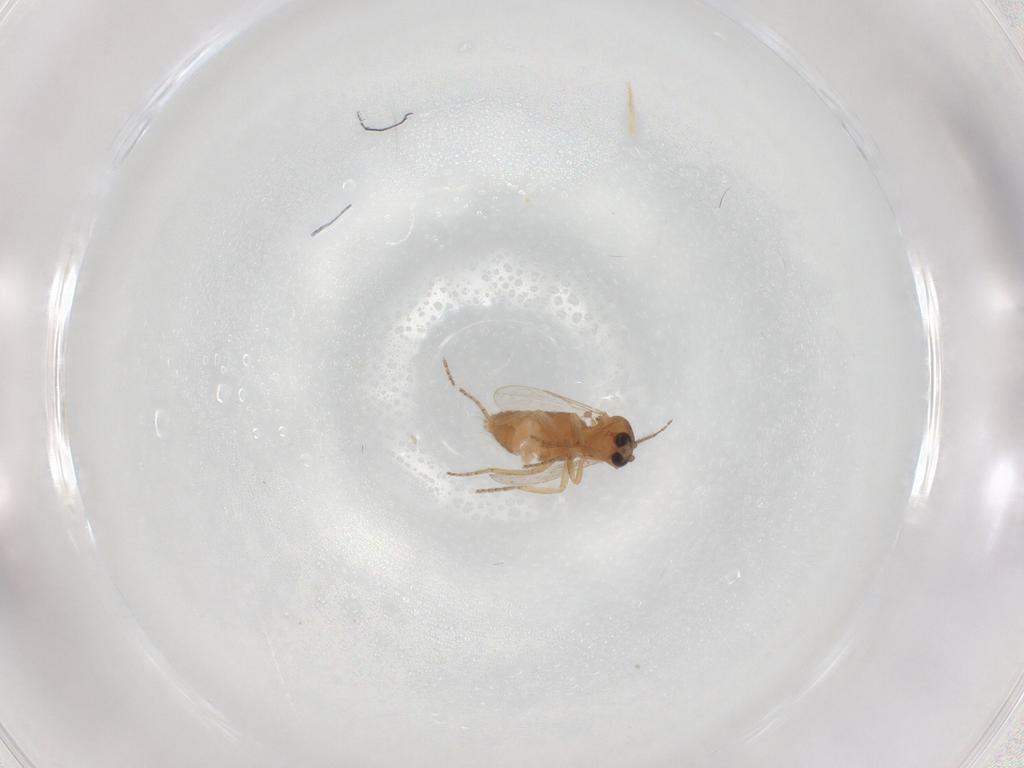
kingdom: Animalia
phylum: Arthropoda
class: Insecta
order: Diptera
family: Ceratopogonidae
